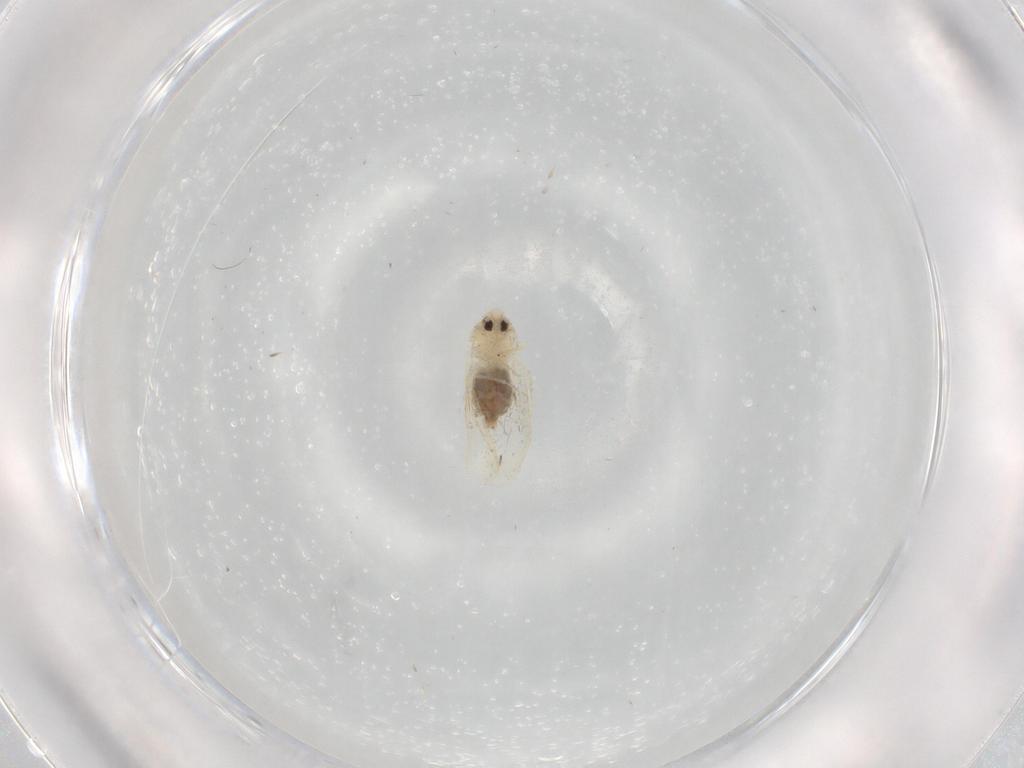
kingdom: Animalia
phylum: Arthropoda
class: Insecta
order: Hemiptera
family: Aleyrodidae
